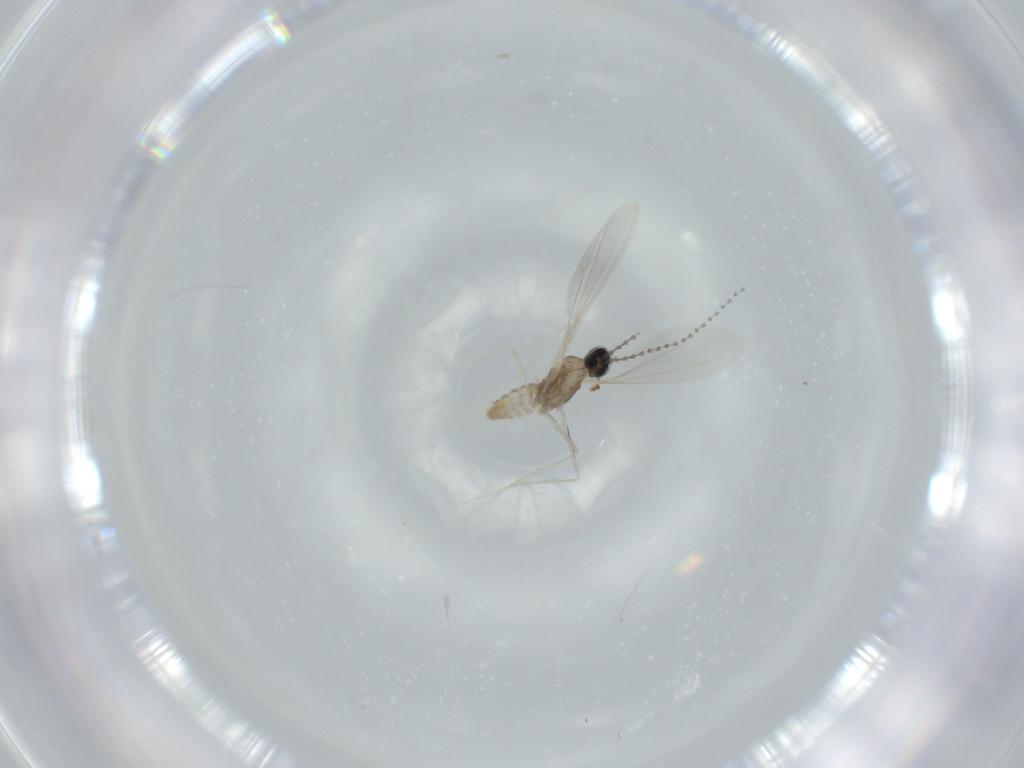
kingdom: Animalia
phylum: Arthropoda
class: Insecta
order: Diptera
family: Cecidomyiidae
